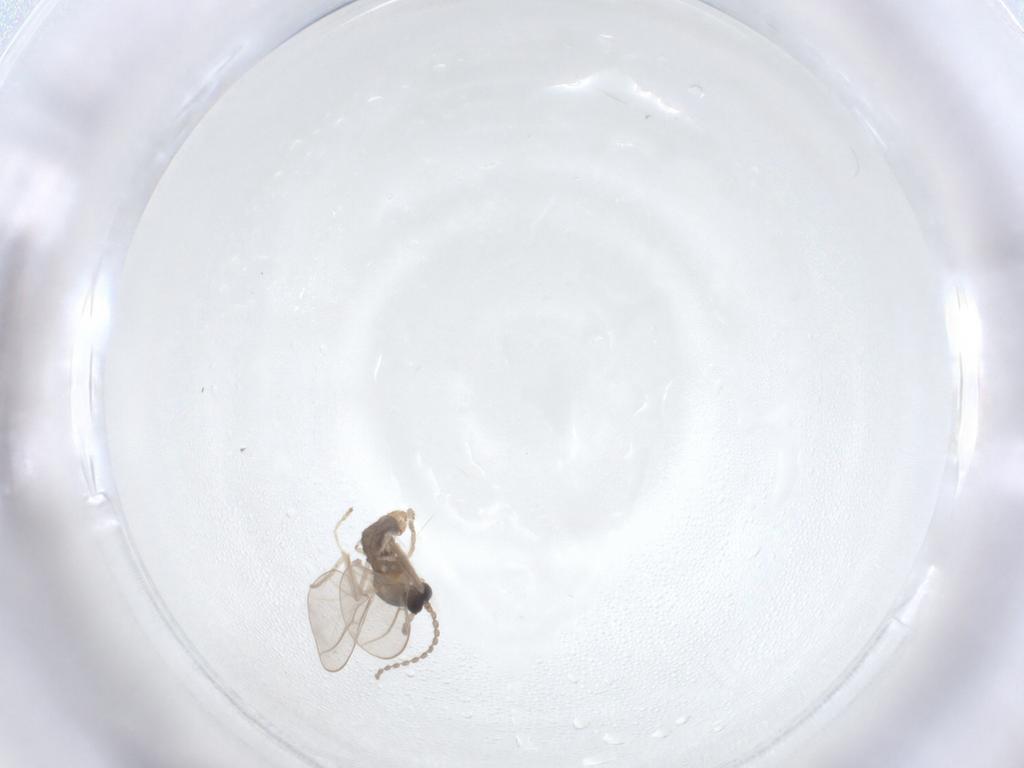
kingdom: Animalia
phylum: Arthropoda
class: Insecta
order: Diptera
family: Cecidomyiidae
